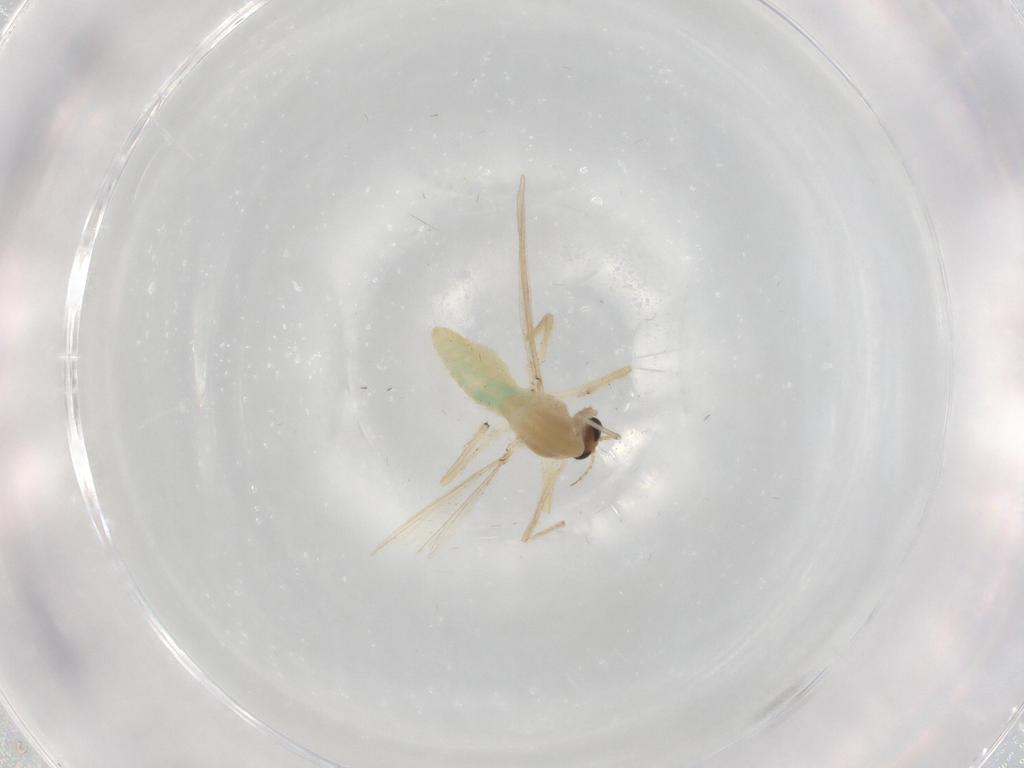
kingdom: Animalia
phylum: Arthropoda
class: Insecta
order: Diptera
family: Chironomidae
